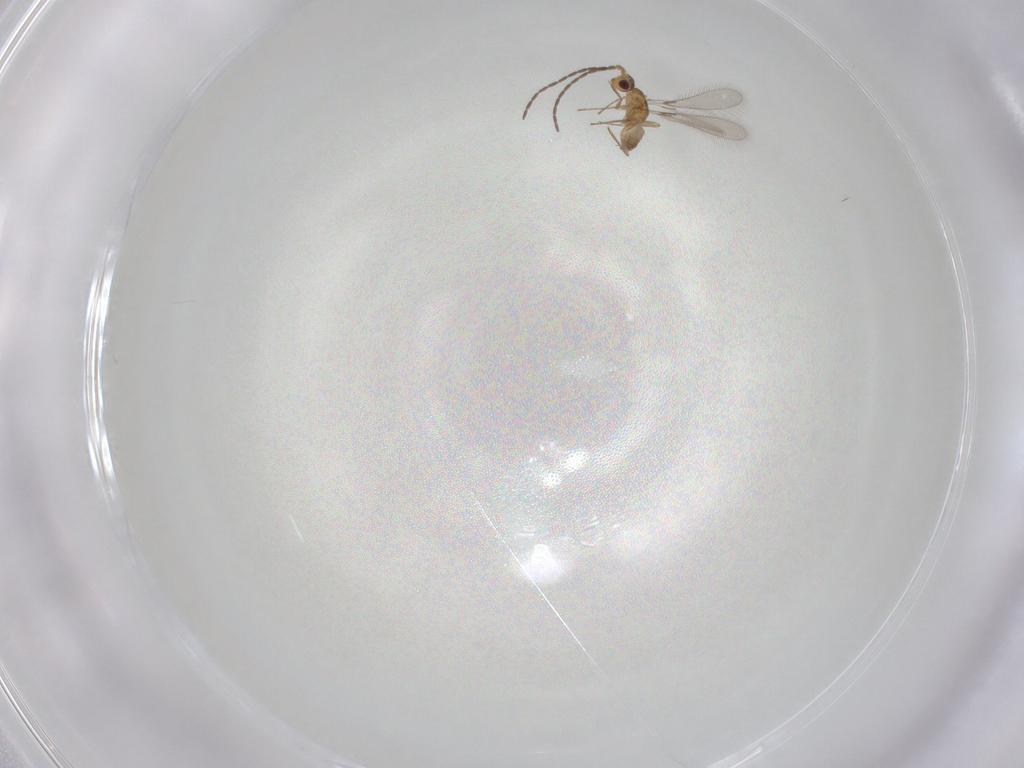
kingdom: Animalia
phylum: Arthropoda
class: Insecta
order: Hymenoptera
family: Mymaridae
